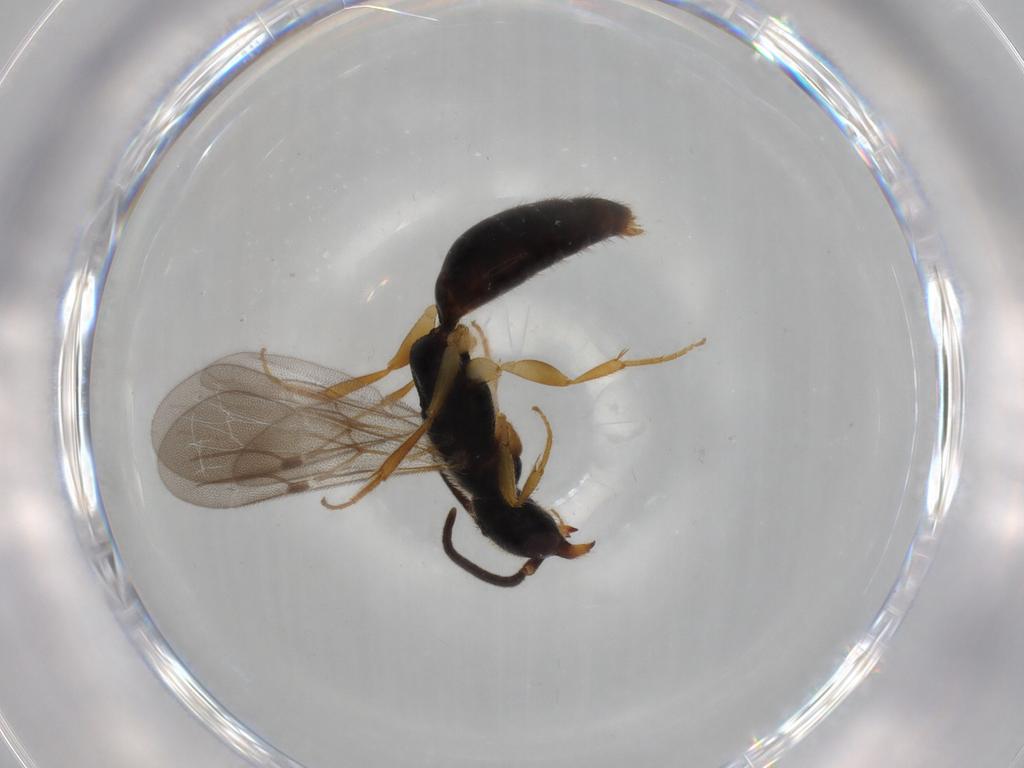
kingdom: Animalia
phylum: Arthropoda
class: Insecta
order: Hymenoptera
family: Bethylidae
